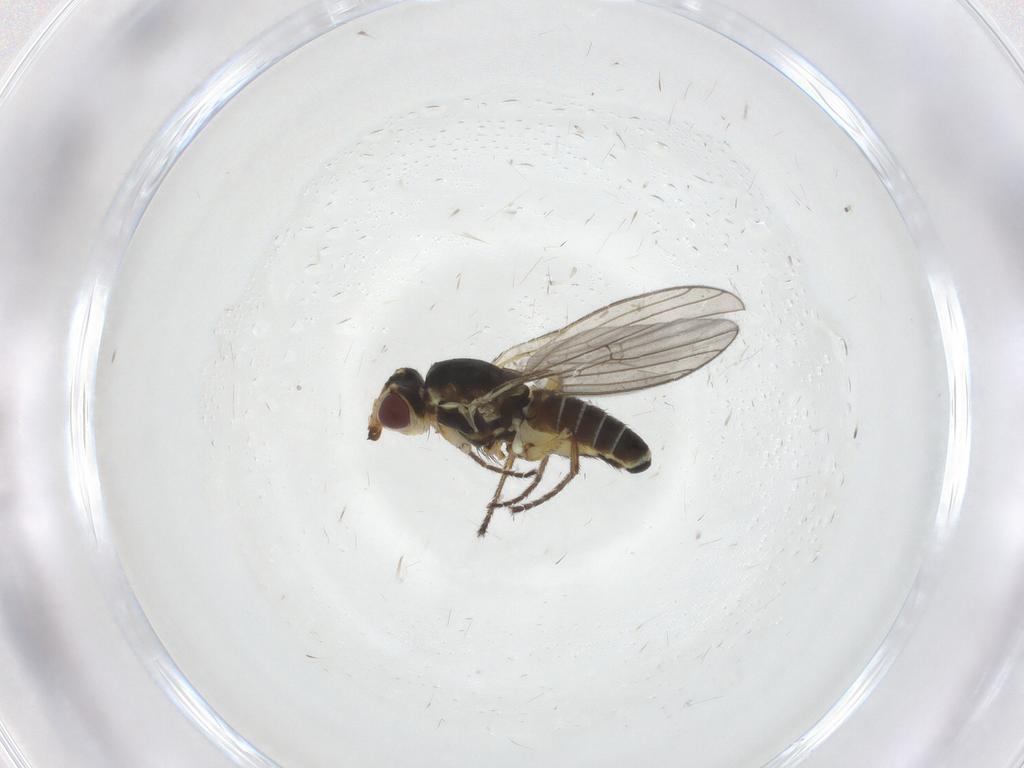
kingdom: Animalia
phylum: Arthropoda
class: Insecta
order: Diptera
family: Agromyzidae
